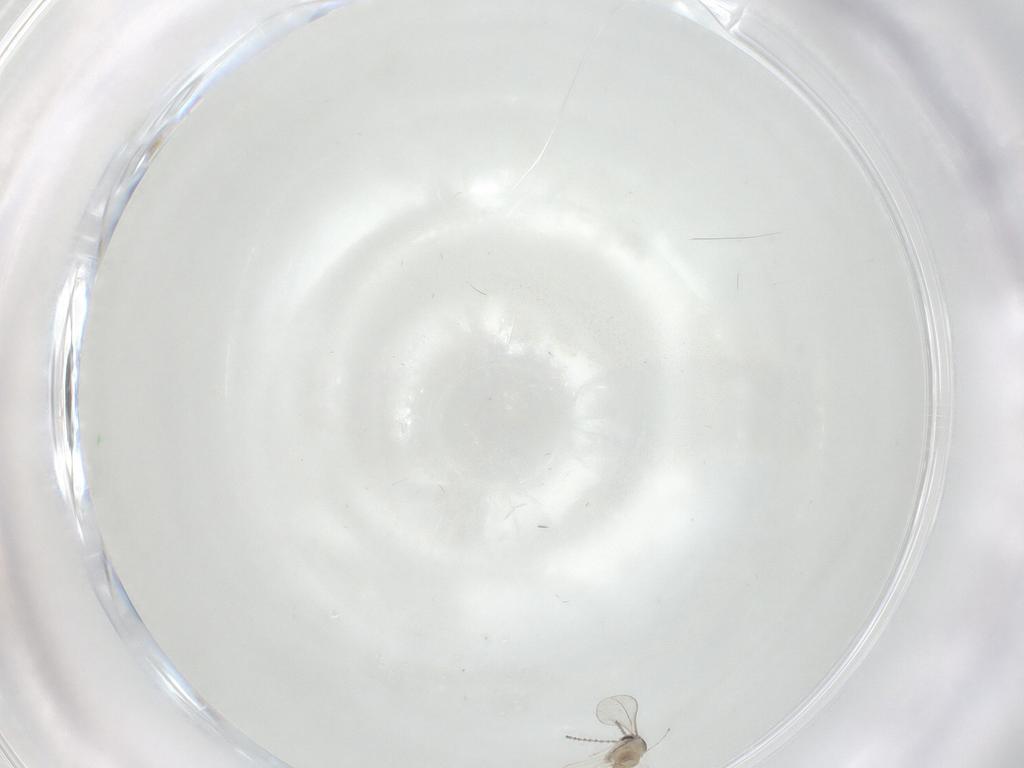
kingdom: Animalia
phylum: Arthropoda
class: Insecta
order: Diptera
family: Cecidomyiidae
